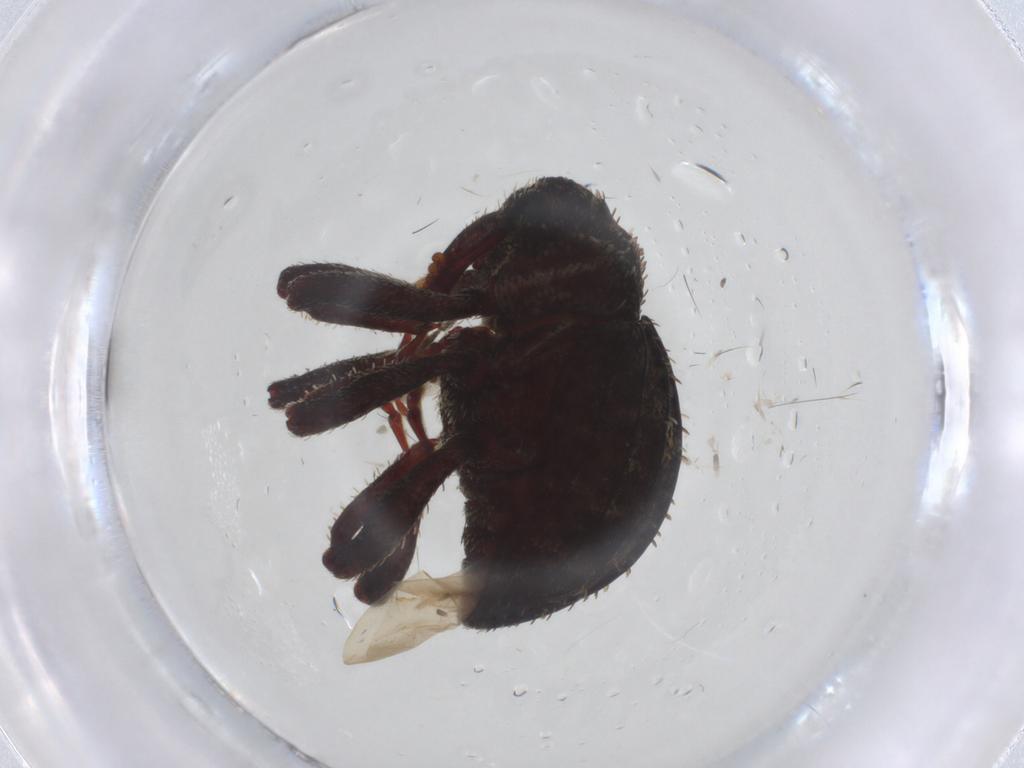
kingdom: Animalia
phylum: Arthropoda
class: Insecta
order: Coleoptera
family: Chrysomelidae
